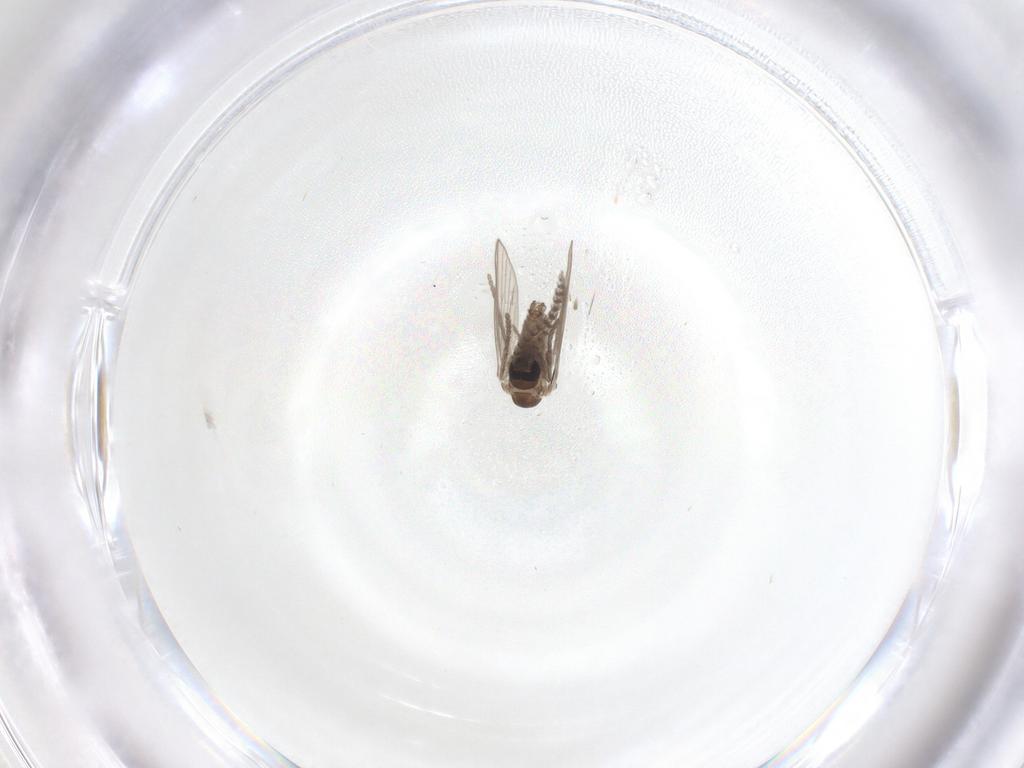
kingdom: Animalia
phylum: Arthropoda
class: Insecta
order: Diptera
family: Psychodidae
